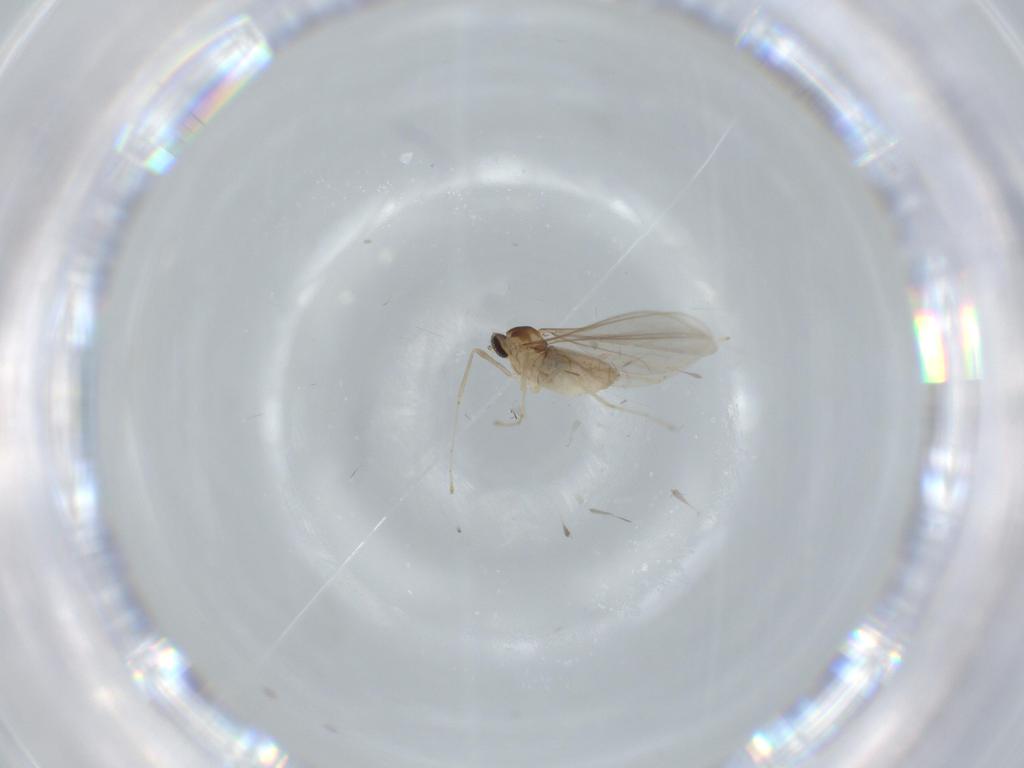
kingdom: Animalia
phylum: Arthropoda
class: Insecta
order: Diptera
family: Cecidomyiidae
